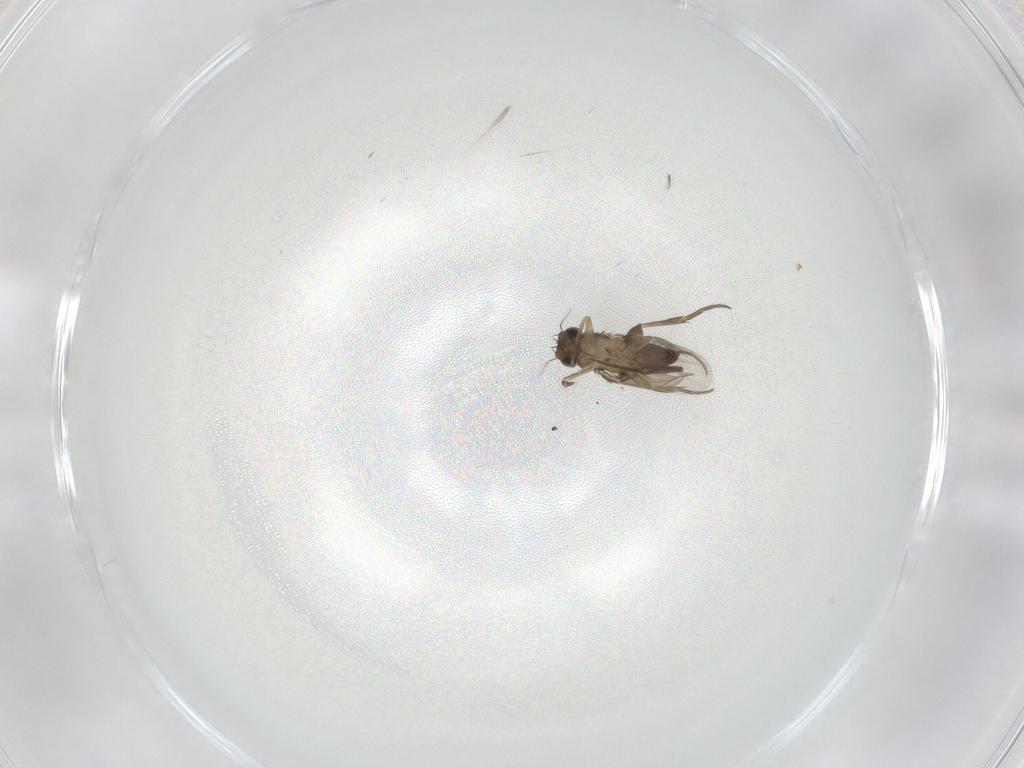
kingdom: Animalia
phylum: Arthropoda
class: Insecta
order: Diptera
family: Phoridae
